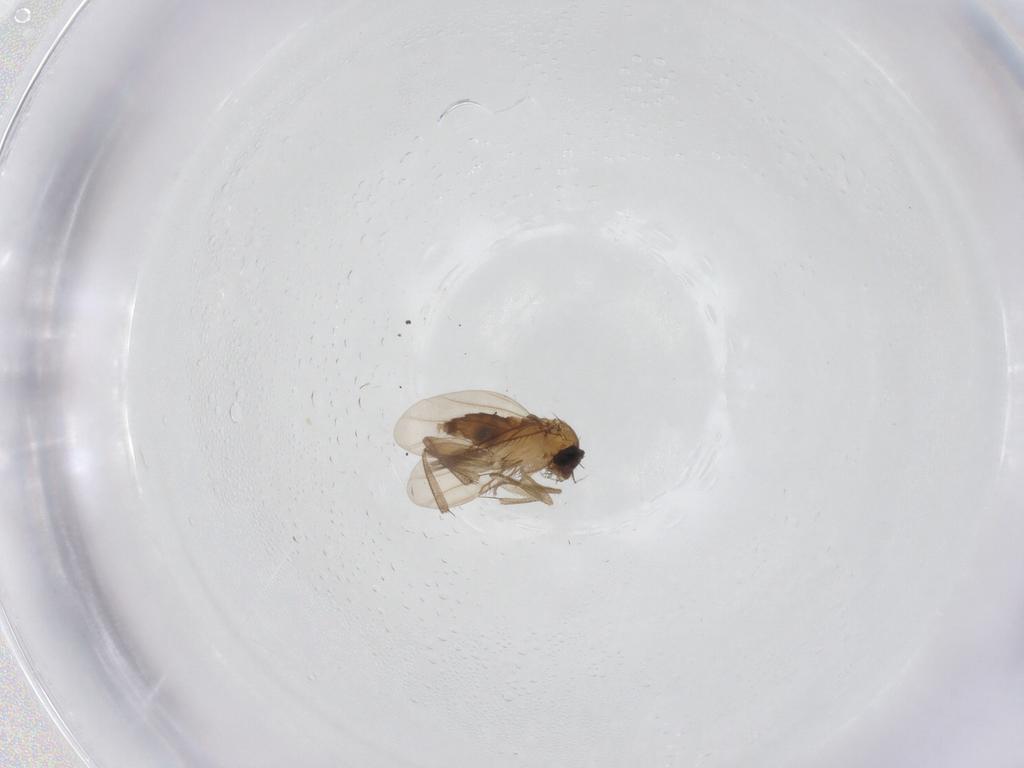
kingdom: Animalia
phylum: Arthropoda
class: Insecta
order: Diptera
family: Phoridae
